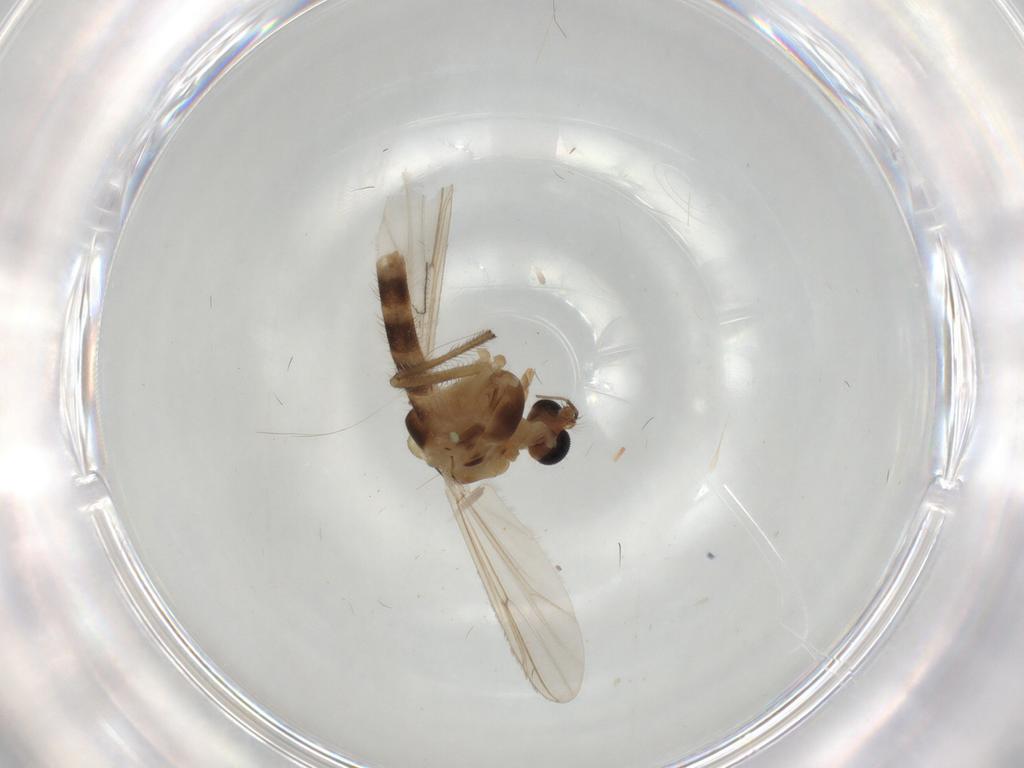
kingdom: Animalia
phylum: Arthropoda
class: Insecta
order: Diptera
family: Chironomidae
